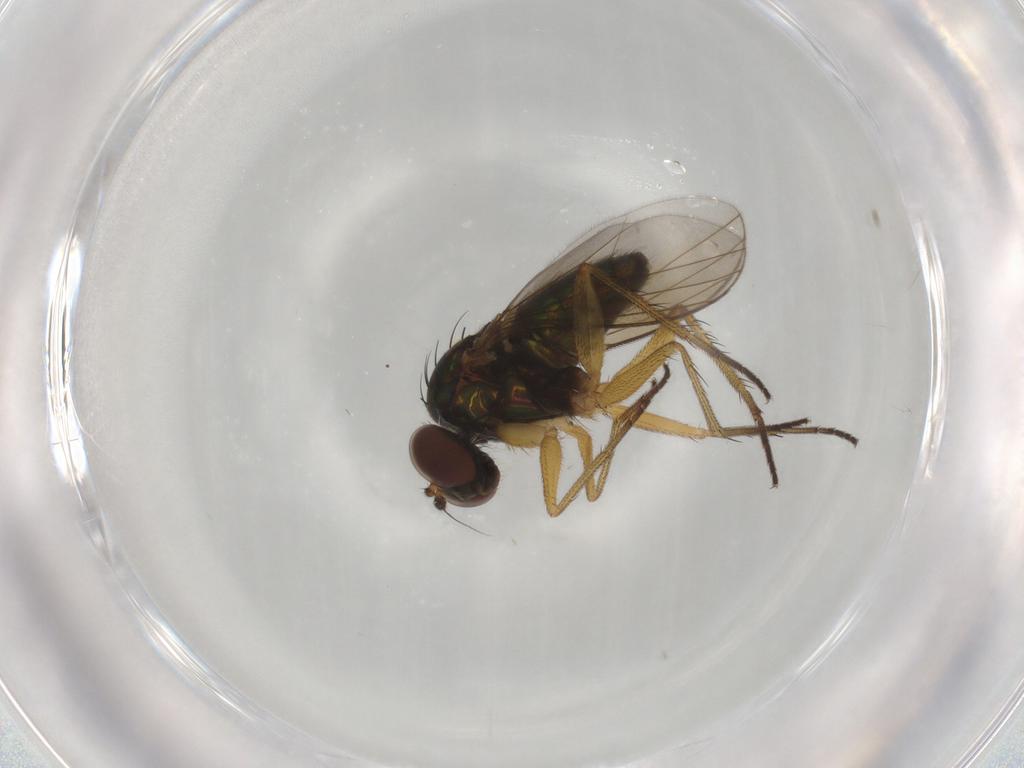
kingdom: Animalia
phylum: Arthropoda
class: Insecta
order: Diptera
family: Dolichopodidae
